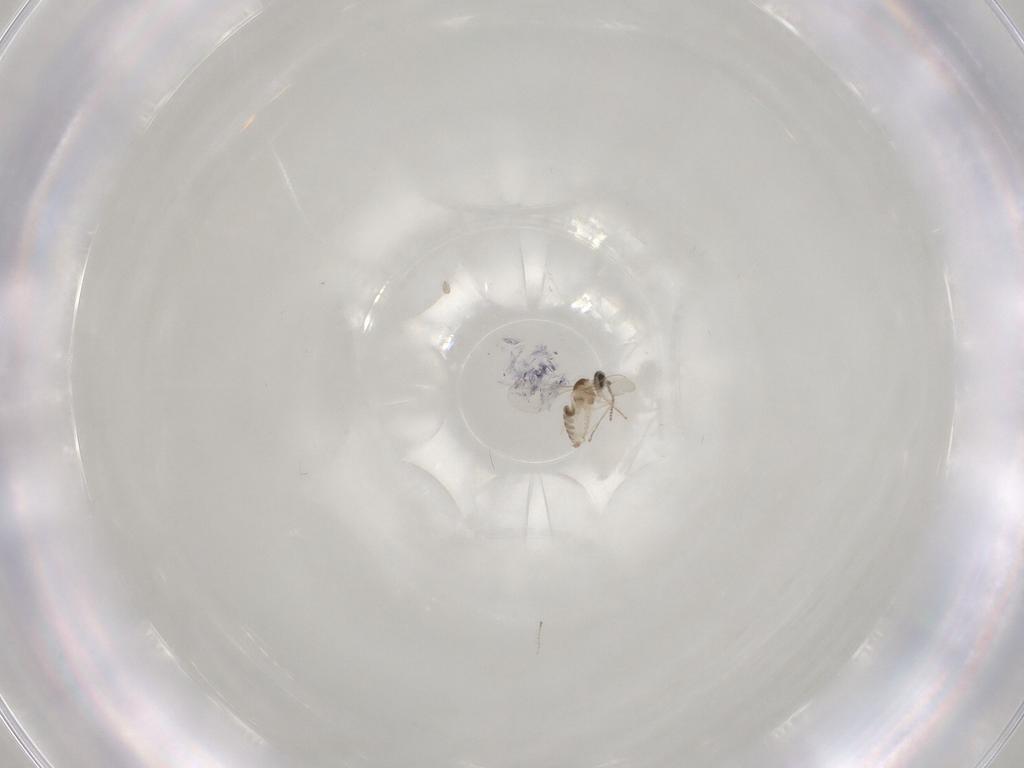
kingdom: Animalia
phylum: Arthropoda
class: Insecta
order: Diptera
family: Cecidomyiidae
